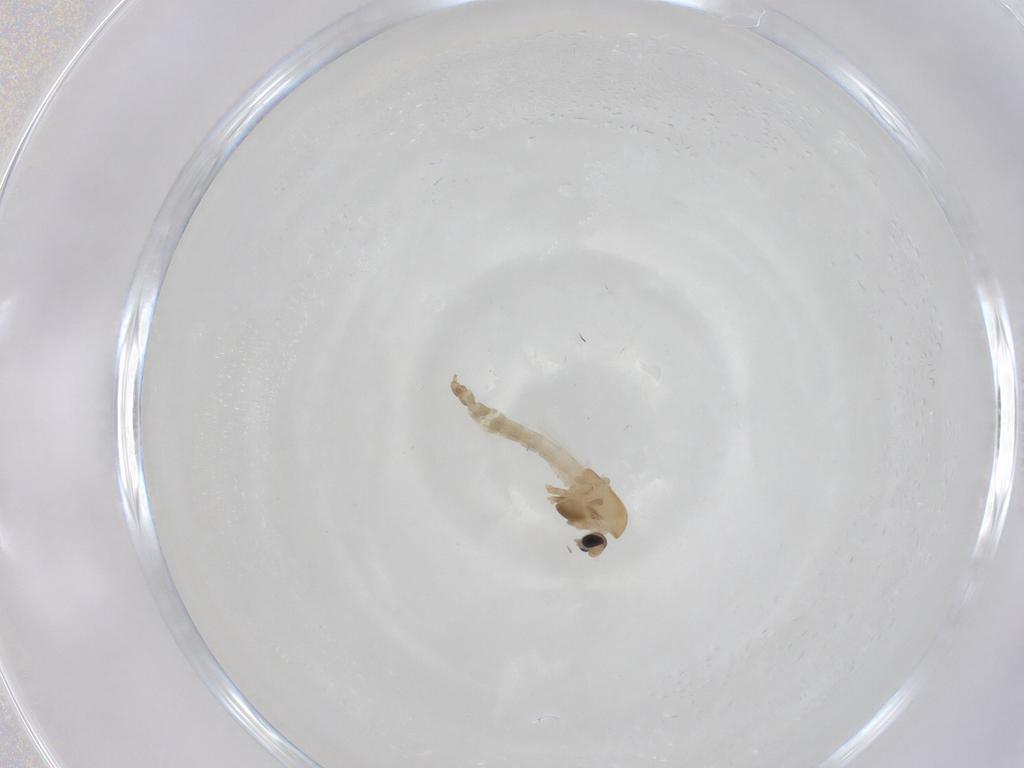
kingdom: Animalia
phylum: Arthropoda
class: Insecta
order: Diptera
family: Chironomidae
